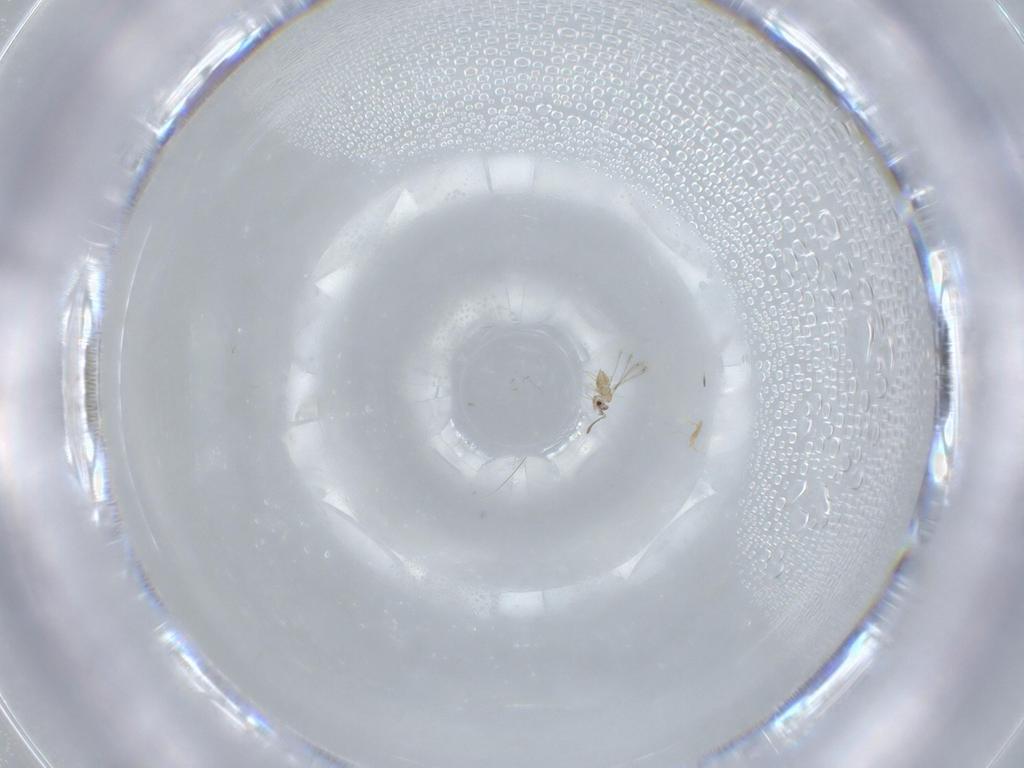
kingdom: Animalia
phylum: Arthropoda
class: Insecta
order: Hymenoptera
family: Mymaridae
